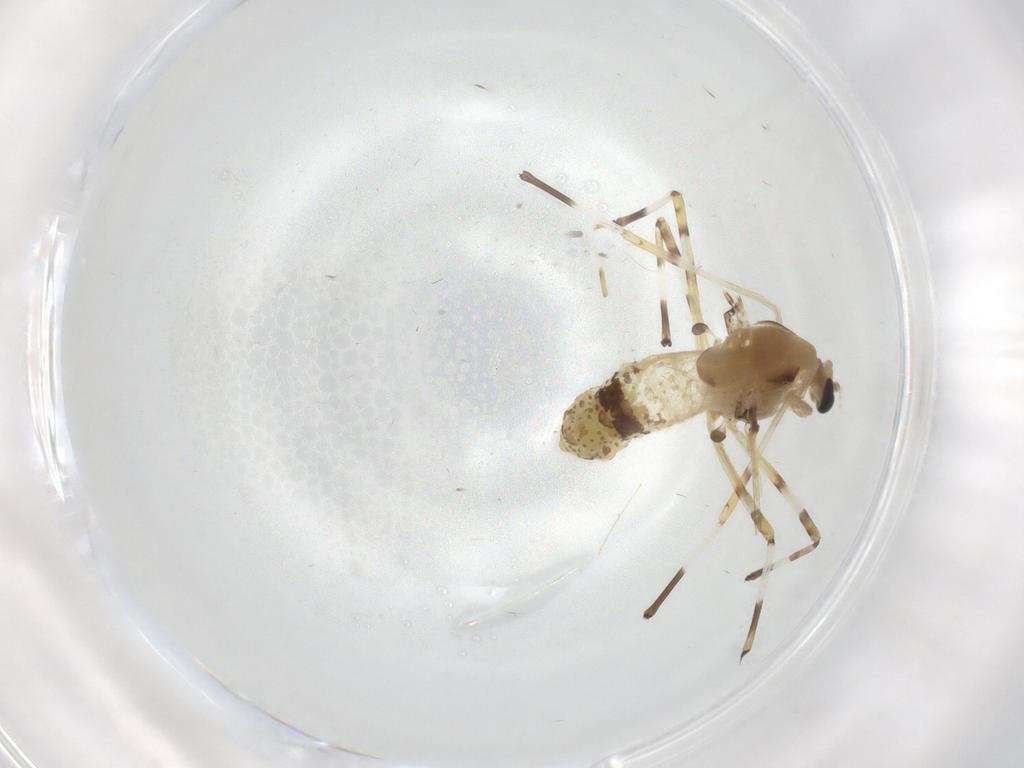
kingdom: Animalia
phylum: Arthropoda
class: Insecta
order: Diptera
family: Chironomidae
